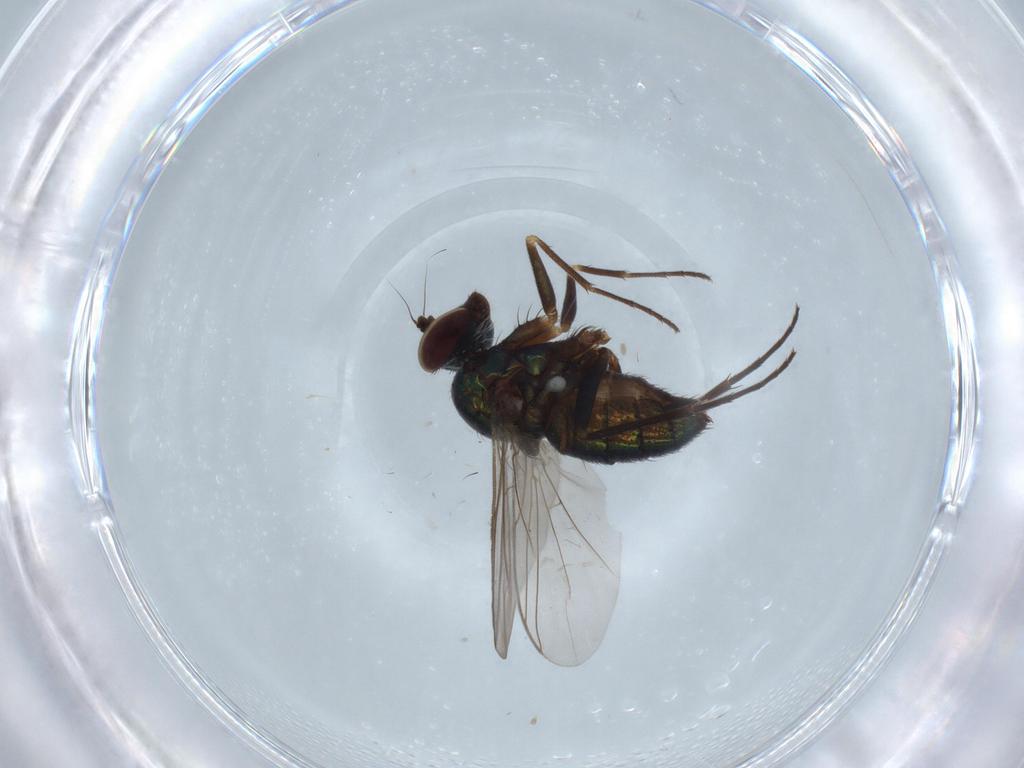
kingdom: Animalia
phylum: Arthropoda
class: Insecta
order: Diptera
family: Dolichopodidae
